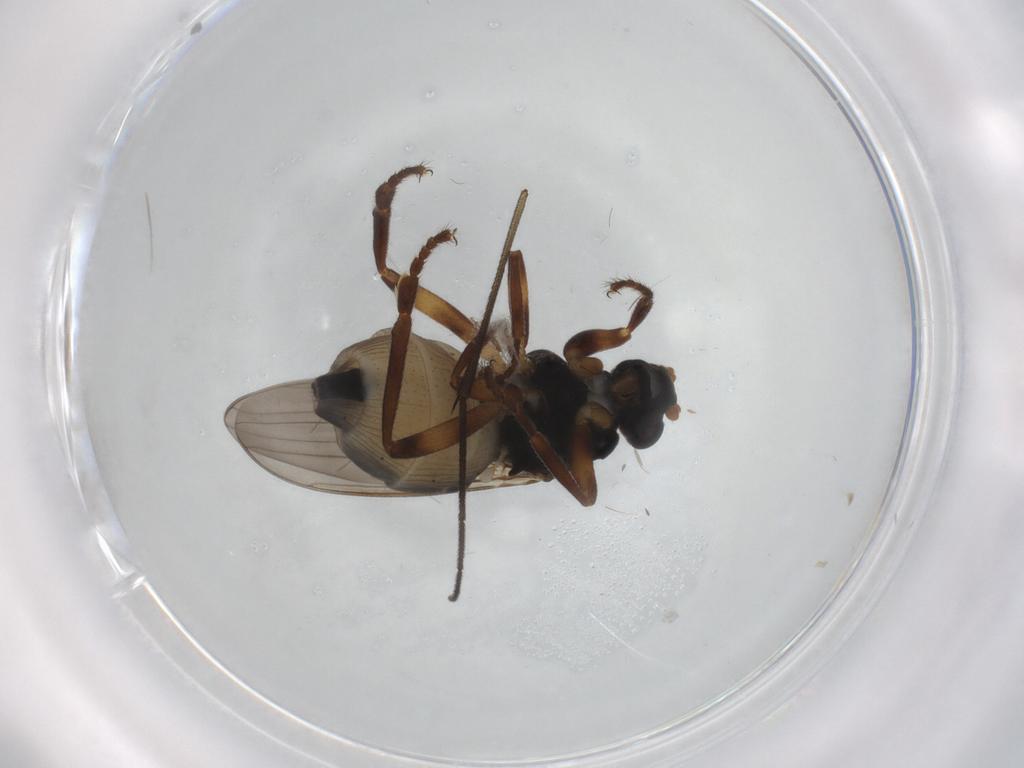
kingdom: Animalia
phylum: Arthropoda
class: Insecta
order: Diptera
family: Sphaeroceridae
